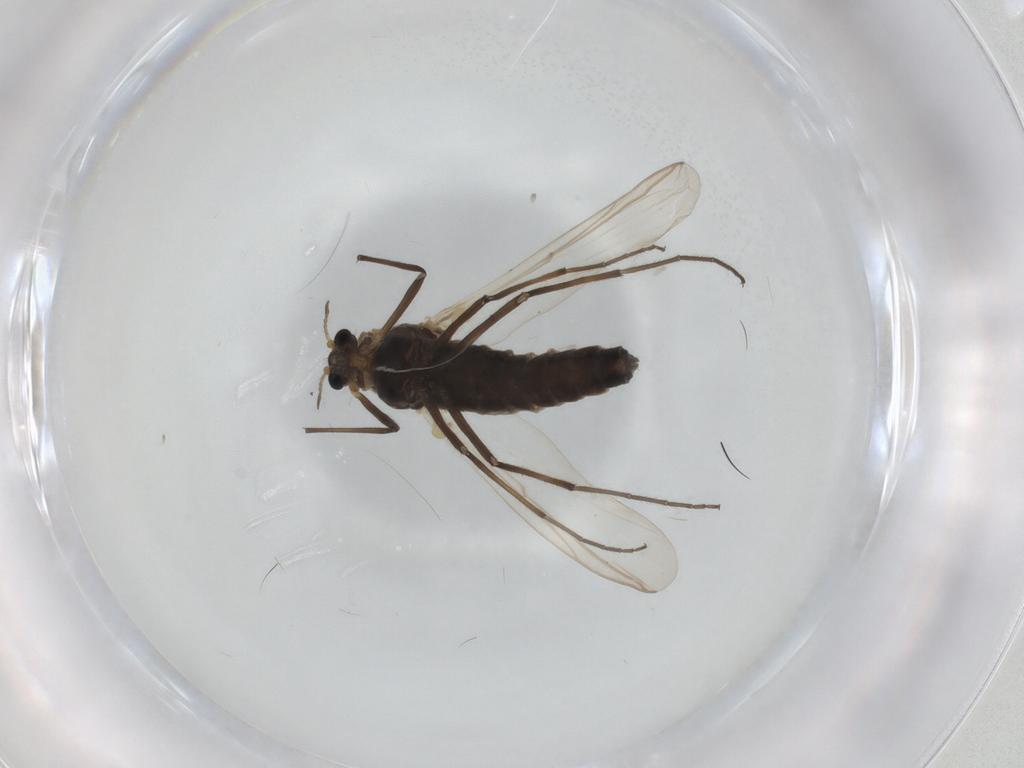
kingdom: Animalia
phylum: Arthropoda
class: Insecta
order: Diptera
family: Chironomidae
